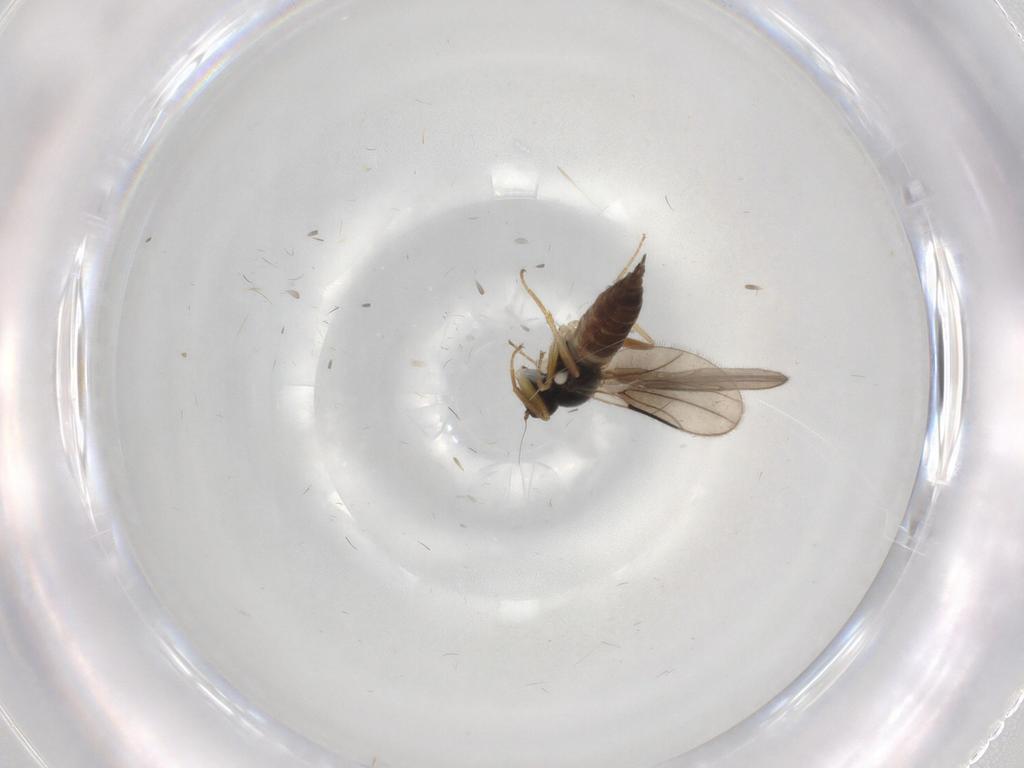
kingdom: Animalia
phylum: Arthropoda
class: Insecta
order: Diptera
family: Hybotidae
